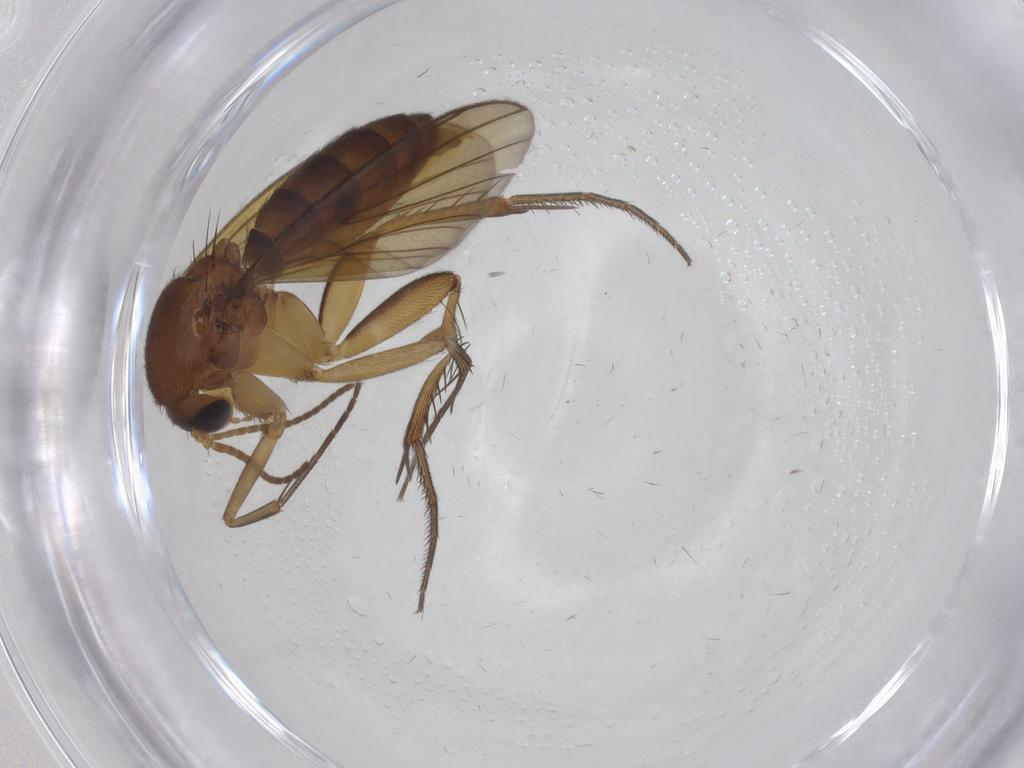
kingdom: Animalia
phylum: Arthropoda
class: Insecta
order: Diptera
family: Mycetophilidae
